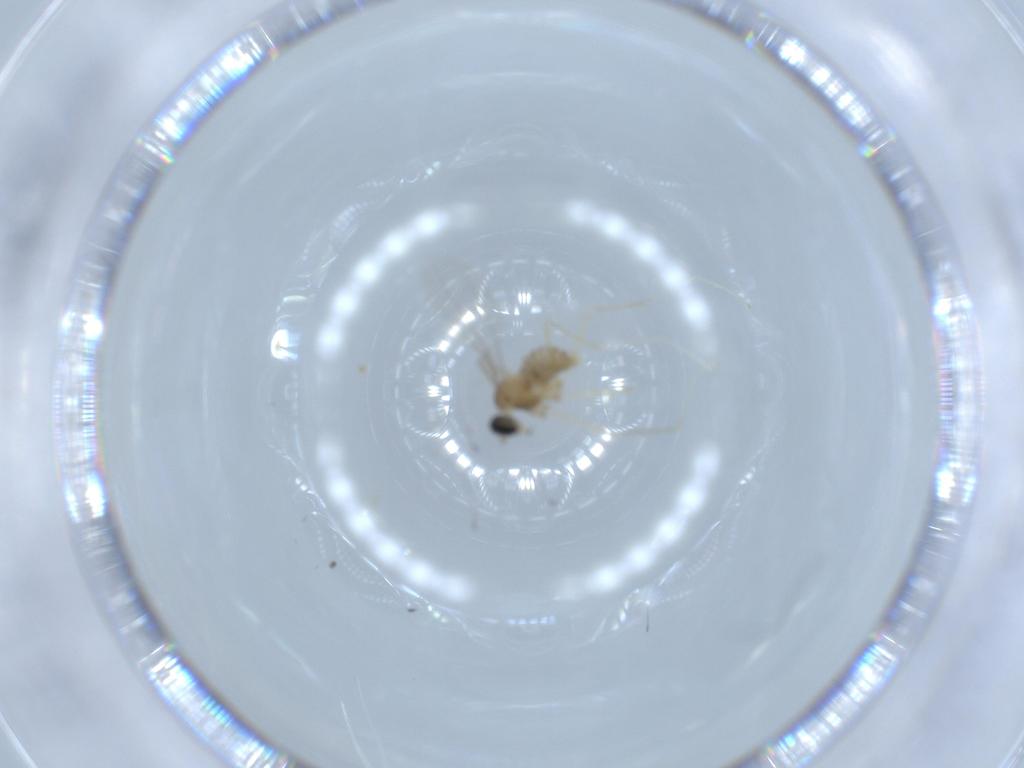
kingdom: Animalia
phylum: Arthropoda
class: Insecta
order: Diptera
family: Cecidomyiidae
